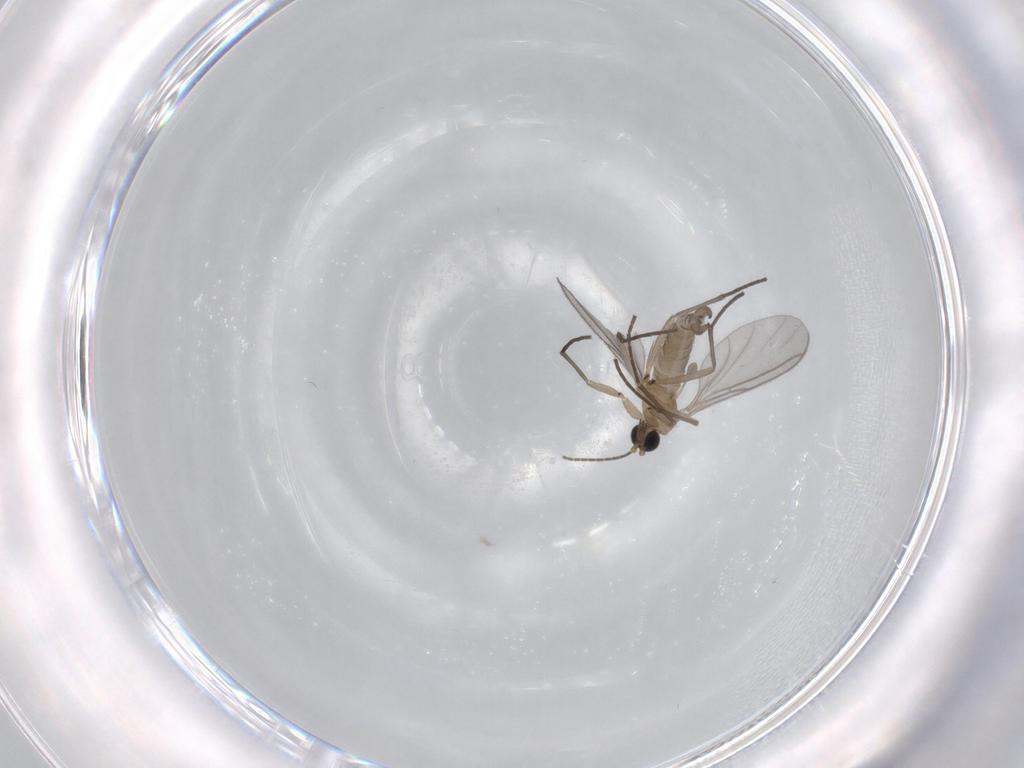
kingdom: Animalia
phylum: Arthropoda
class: Insecta
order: Diptera
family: Sciaridae
